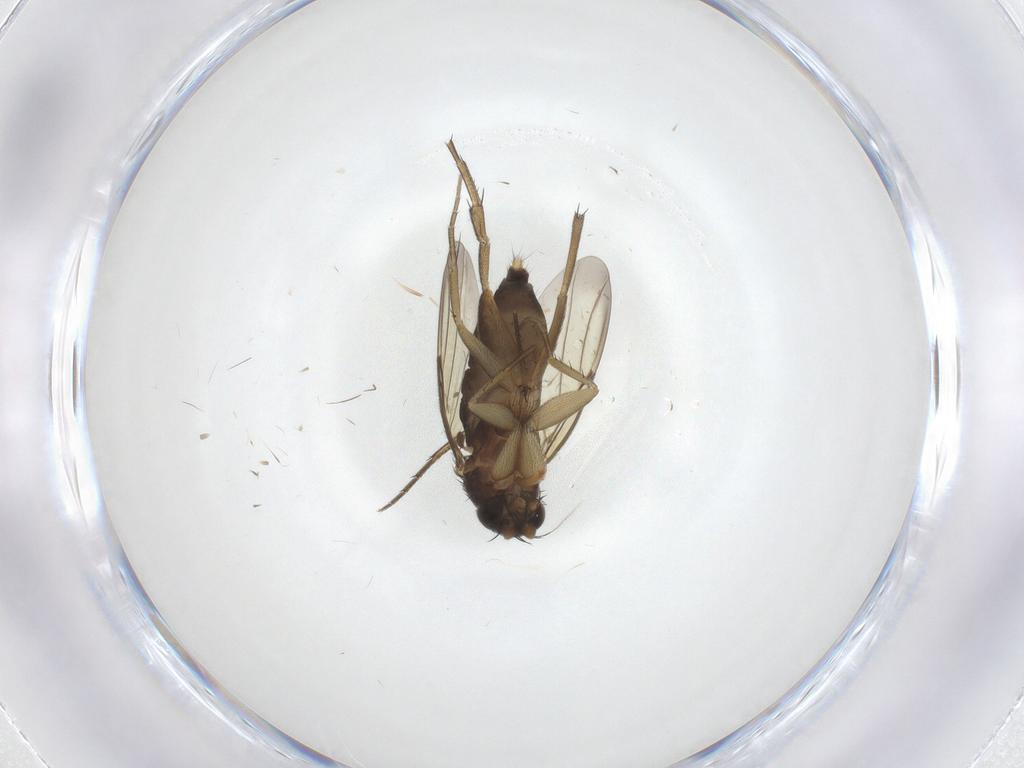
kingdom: Animalia
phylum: Arthropoda
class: Insecta
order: Diptera
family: Phoridae
